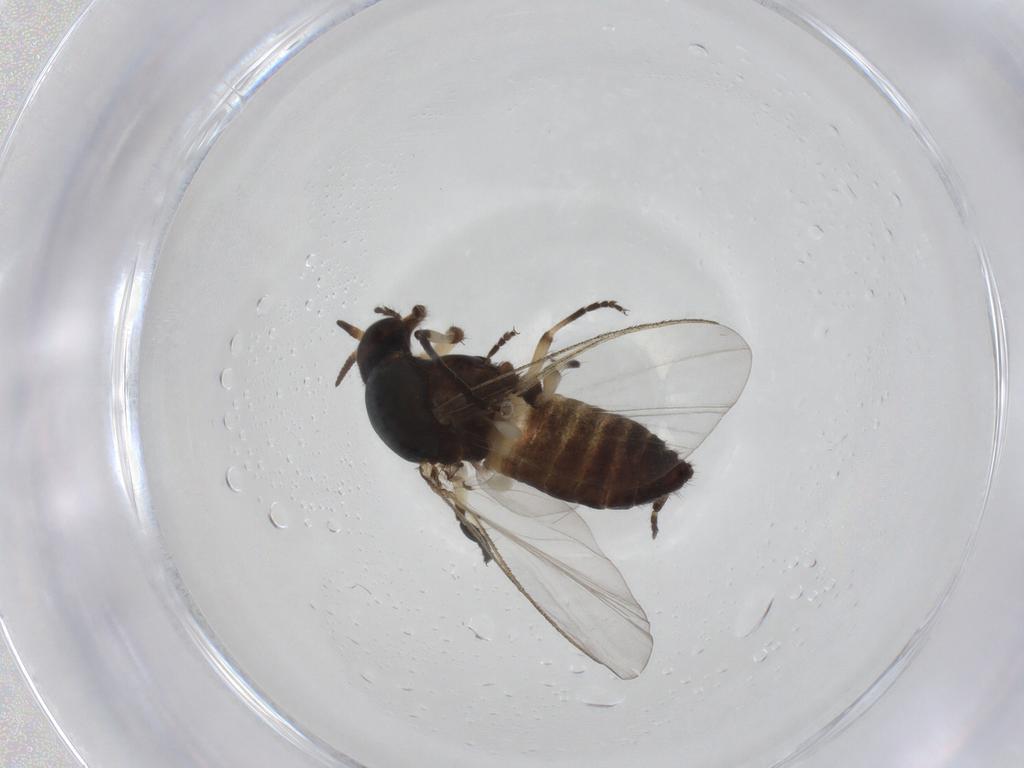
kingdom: Animalia
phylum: Arthropoda
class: Insecta
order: Diptera
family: Simuliidae
